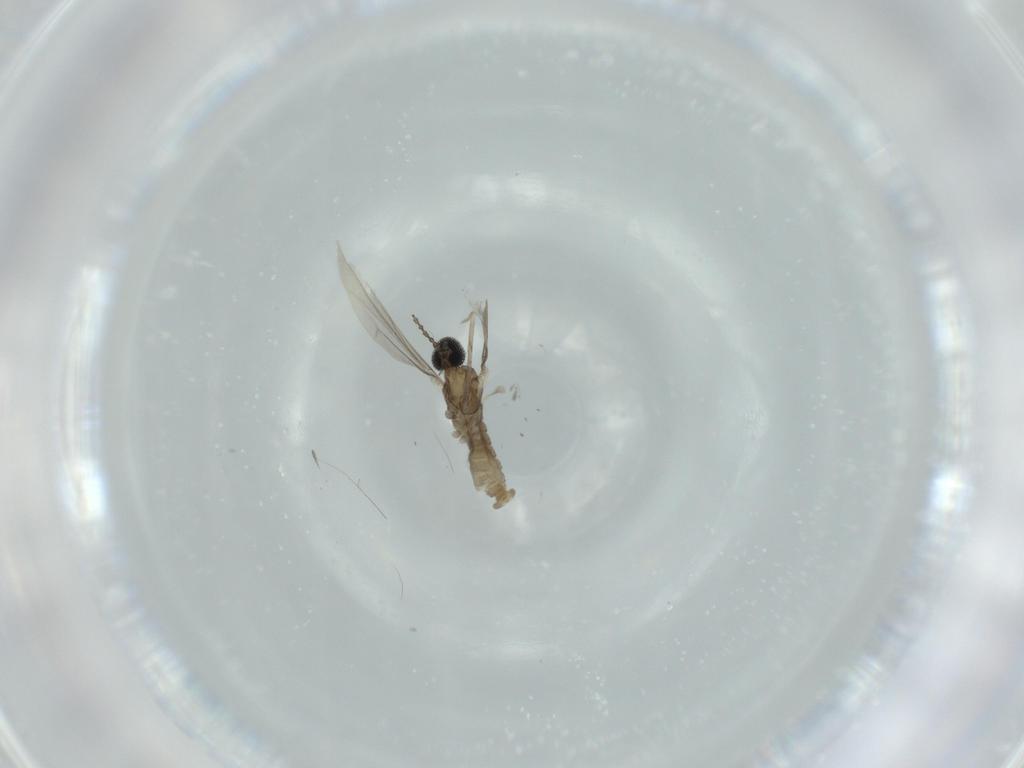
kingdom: Animalia
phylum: Arthropoda
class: Insecta
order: Diptera
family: Cecidomyiidae
